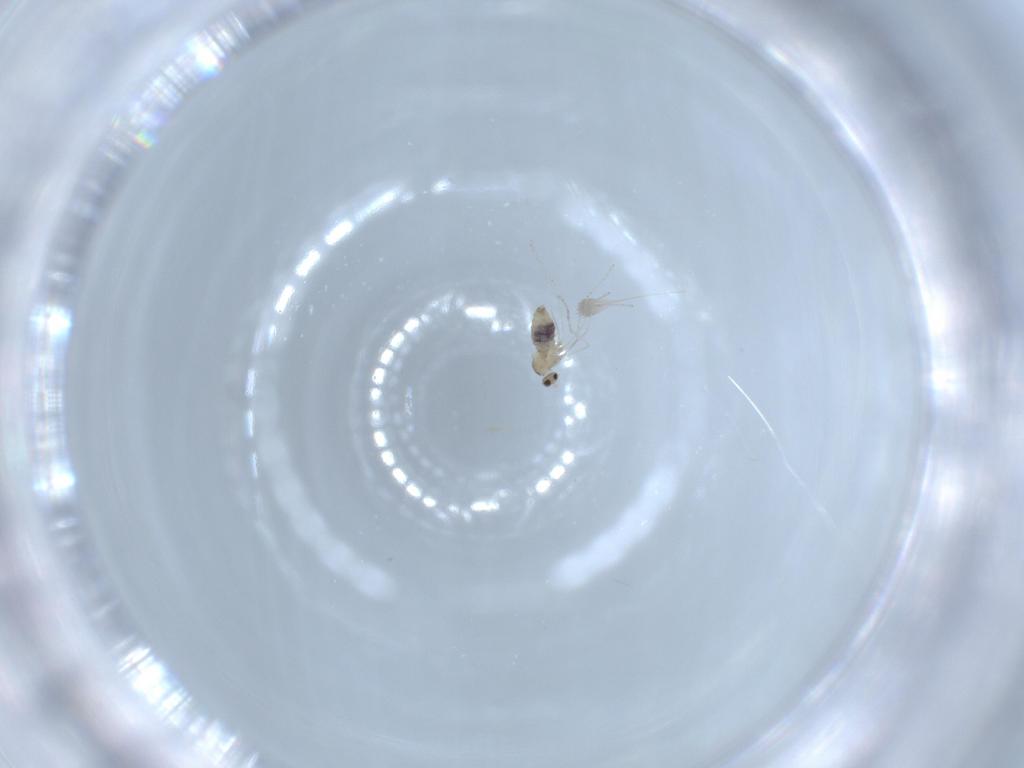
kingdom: Animalia
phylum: Arthropoda
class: Insecta
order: Diptera
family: Cecidomyiidae
